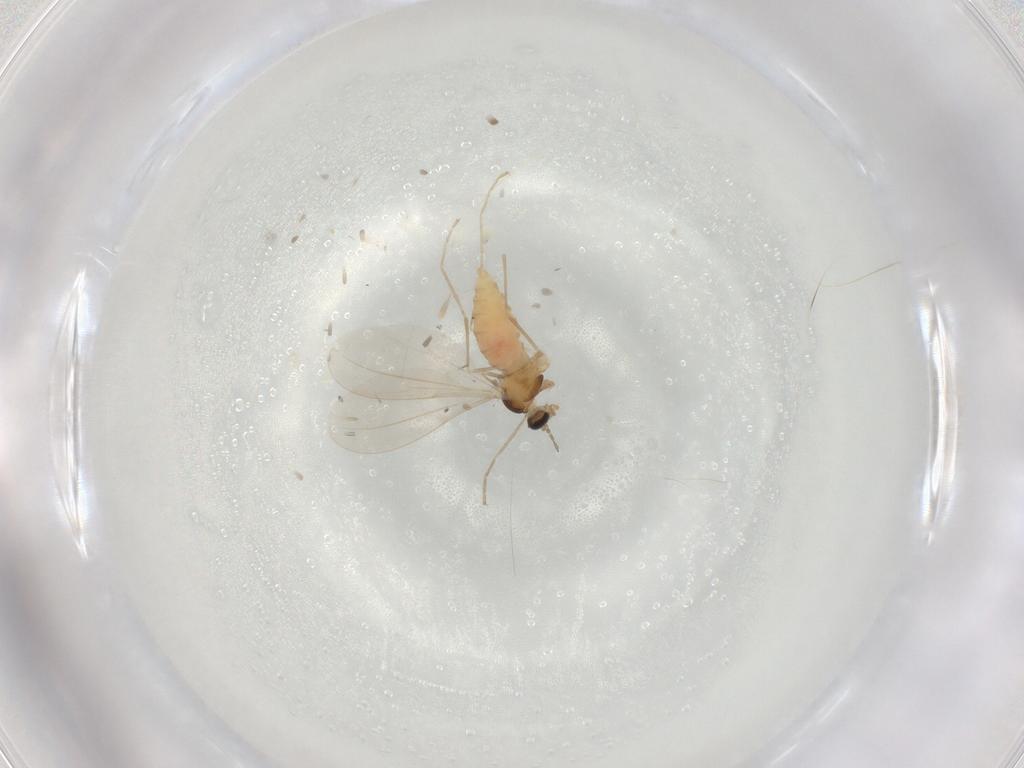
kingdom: Animalia
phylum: Arthropoda
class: Insecta
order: Diptera
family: Cecidomyiidae
